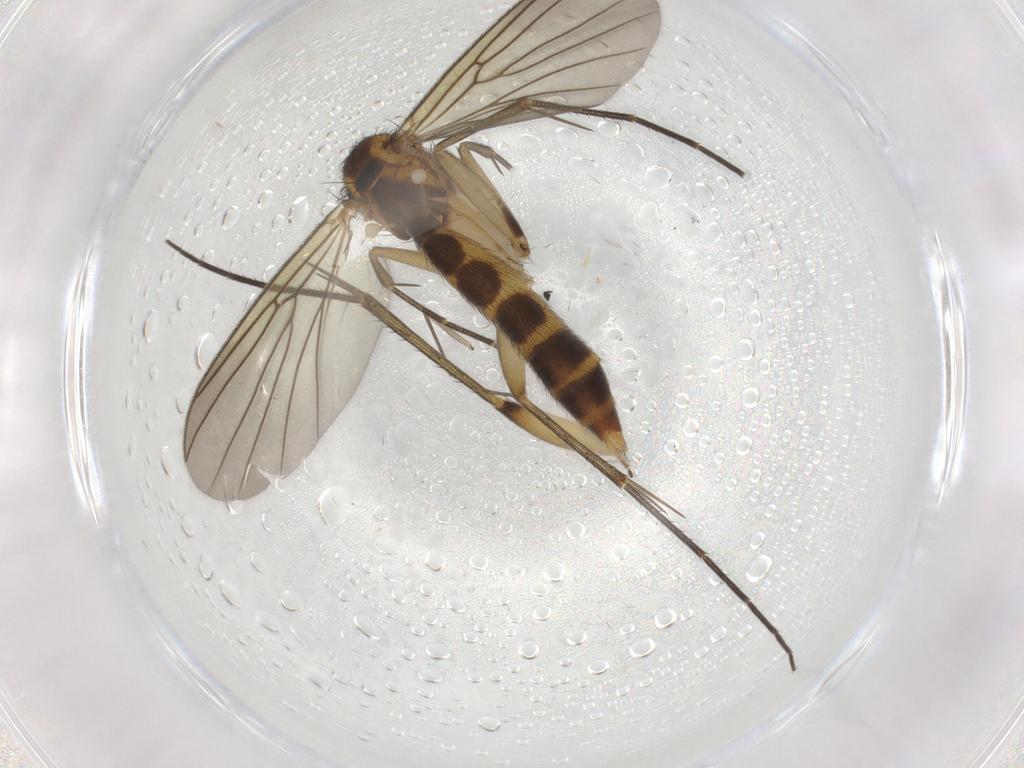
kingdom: Animalia
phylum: Arthropoda
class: Insecta
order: Diptera
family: Mycetophilidae
